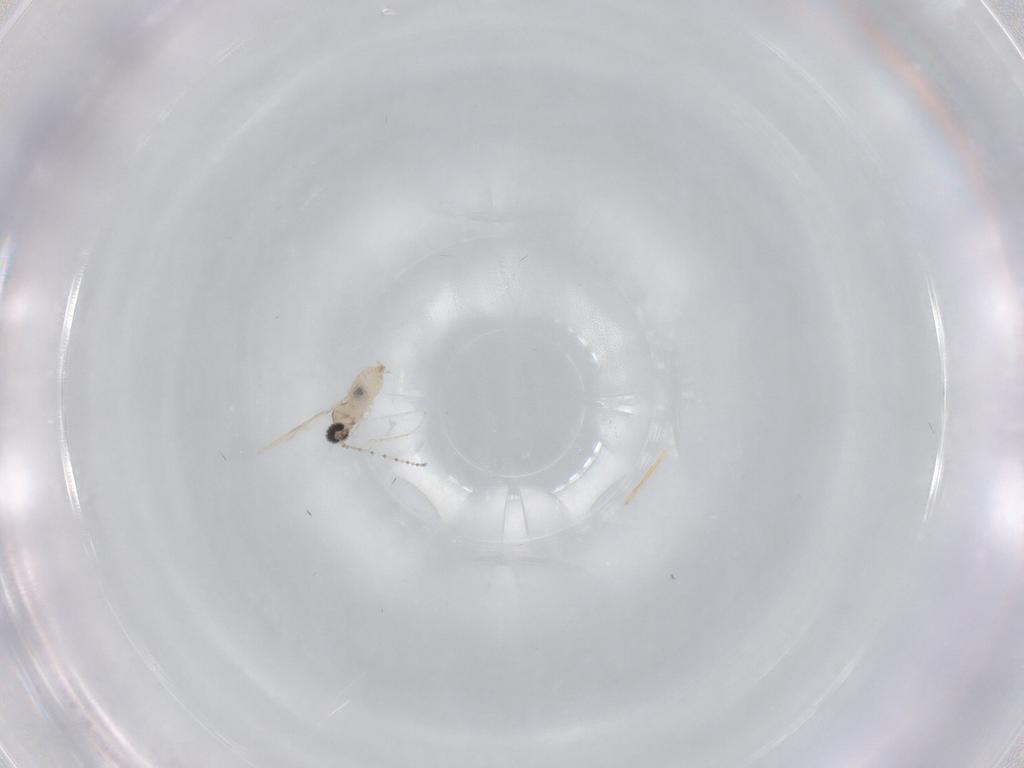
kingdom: Animalia
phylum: Arthropoda
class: Insecta
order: Diptera
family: Cecidomyiidae
